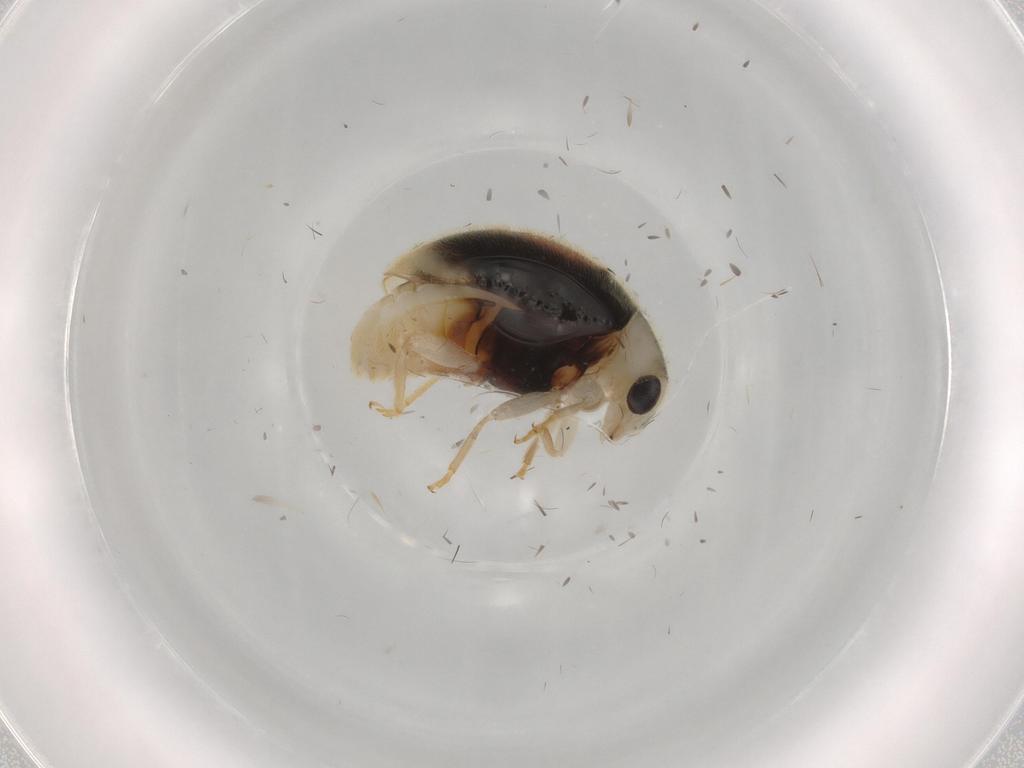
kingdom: Animalia
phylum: Arthropoda
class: Insecta
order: Coleoptera
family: Coccinellidae
